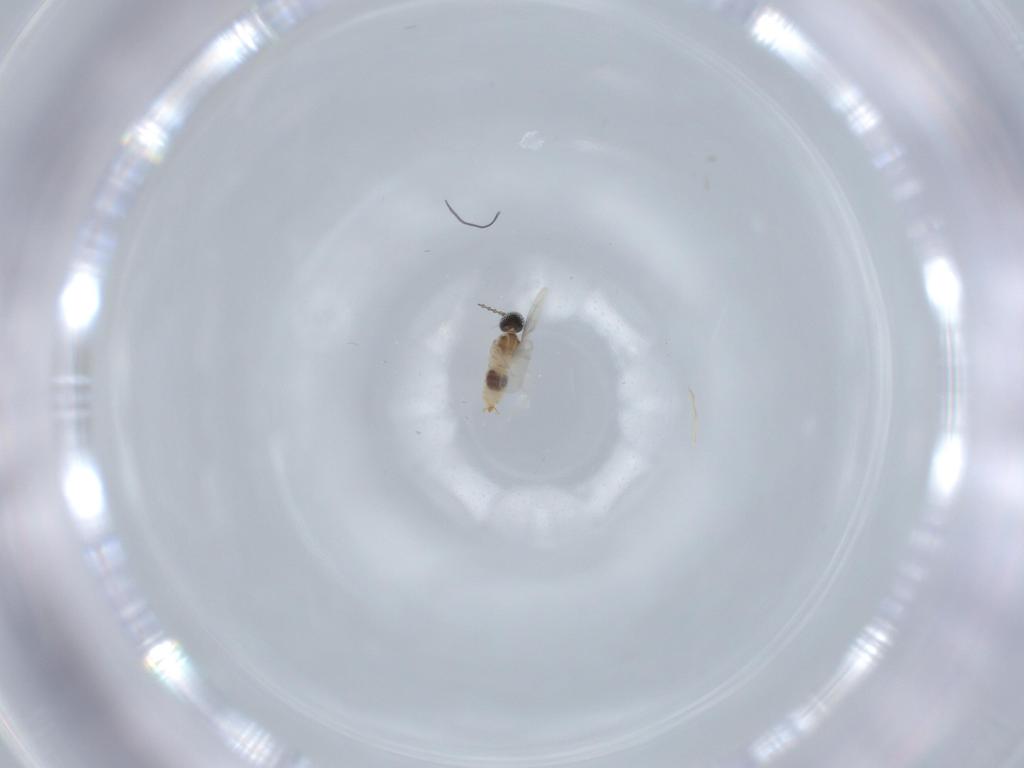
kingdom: Animalia
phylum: Arthropoda
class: Insecta
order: Diptera
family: Cecidomyiidae
